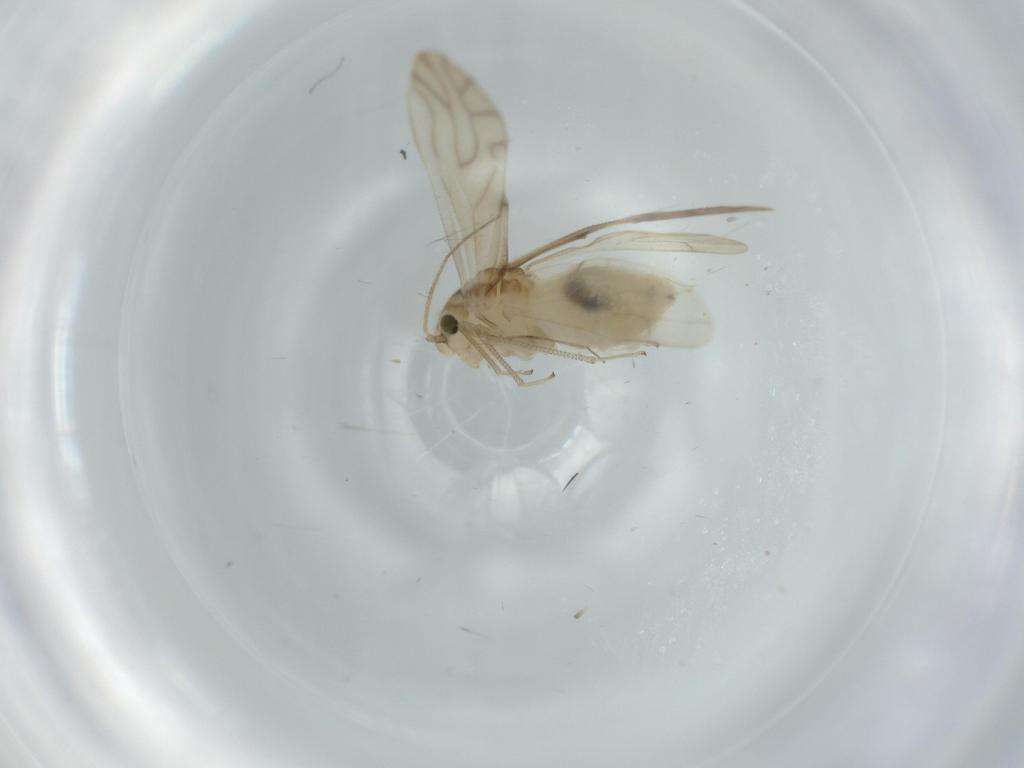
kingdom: Animalia
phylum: Arthropoda
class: Insecta
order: Psocodea
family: Caeciliusidae
